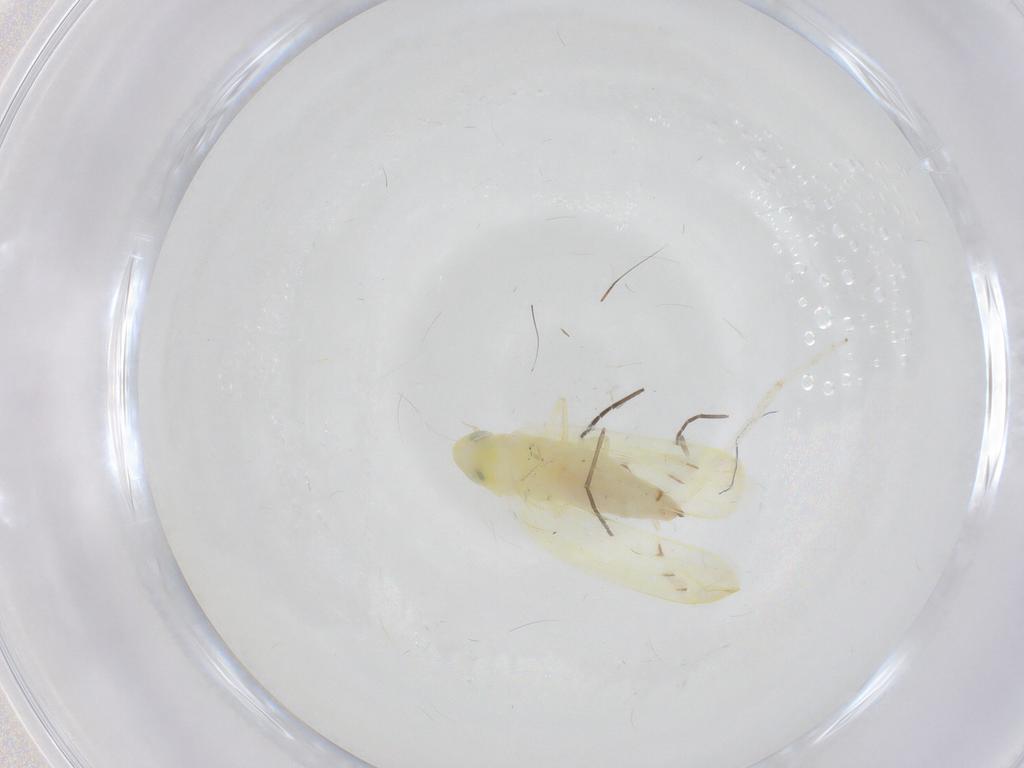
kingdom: Animalia
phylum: Arthropoda
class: Insecta
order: Hemiptera
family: Cicadellidae
